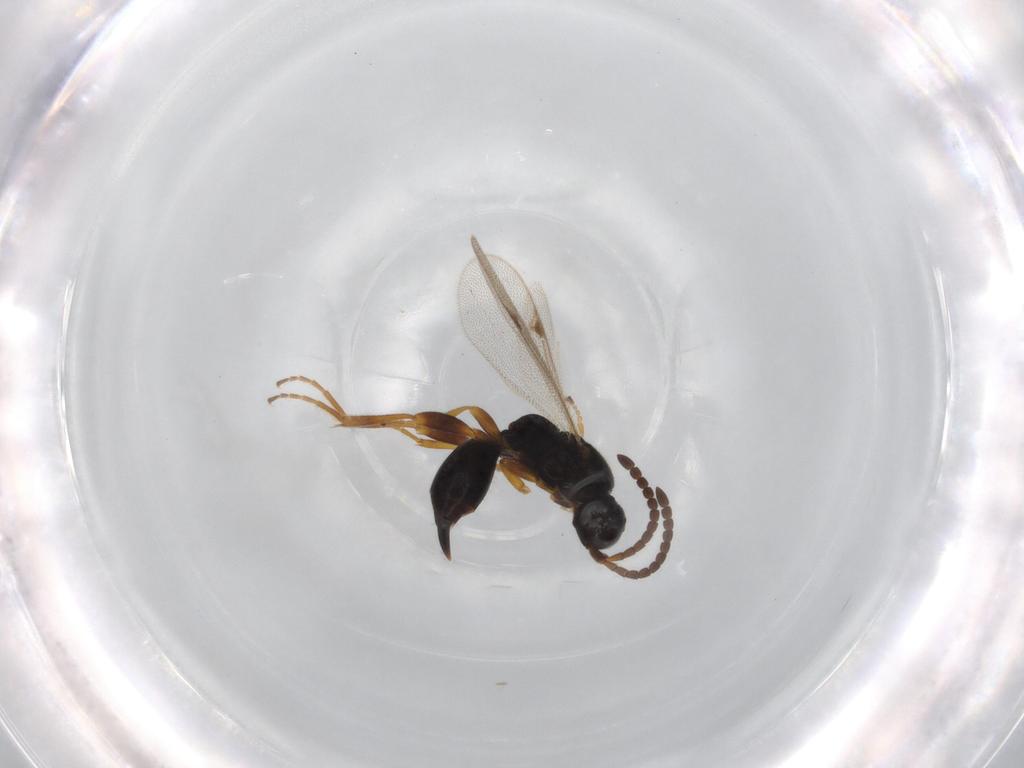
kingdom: Animalia
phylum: Arthropoda
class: Insecta
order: Hymenoptera
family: Proctotrupidae
